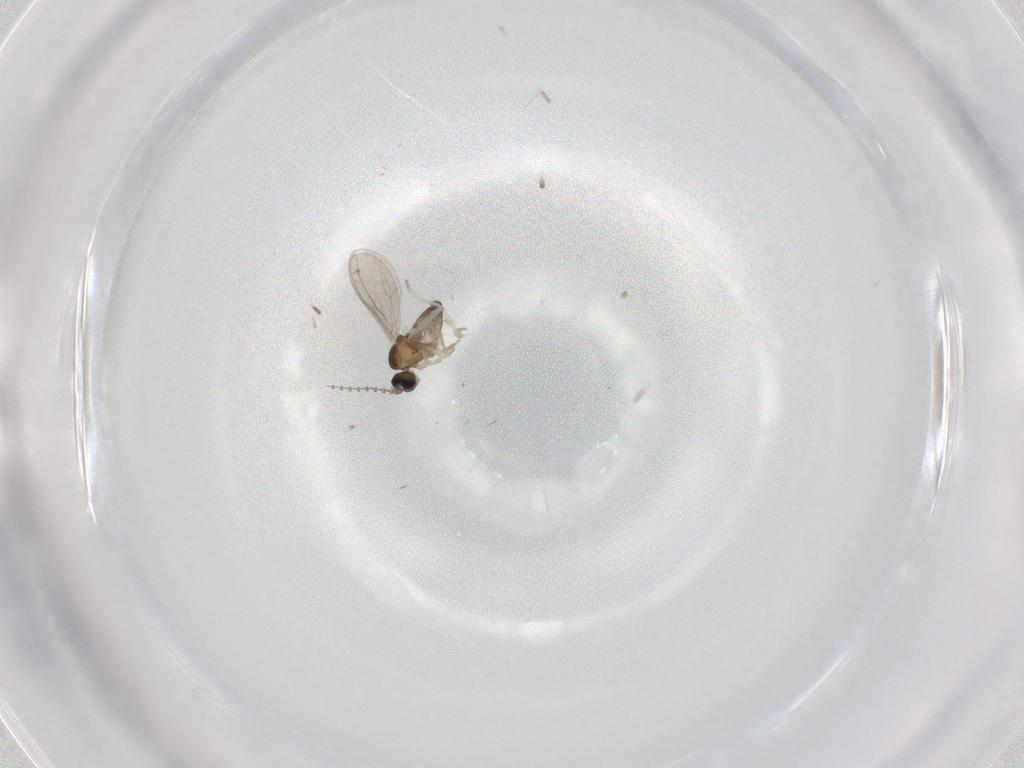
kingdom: Animalia
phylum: Arthropoda
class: Insecta
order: Diptera
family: Cecidomyiidae
